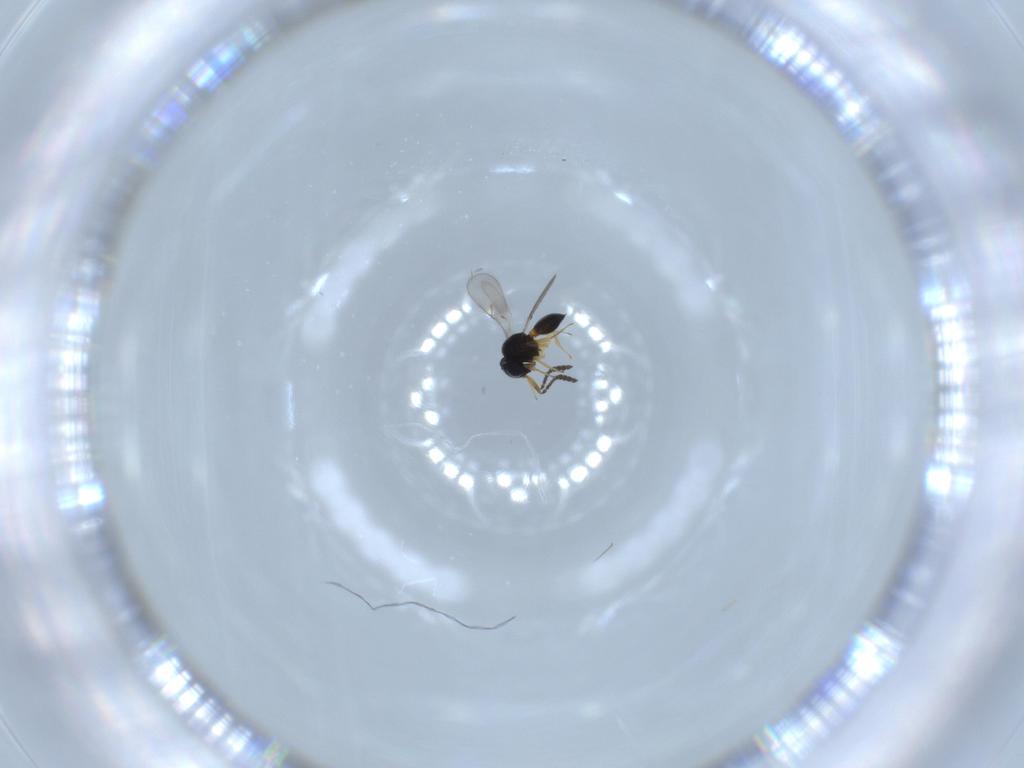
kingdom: Animalia
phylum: Arthropoda
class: Insecta
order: Hymenoptera
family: Scelionidae
